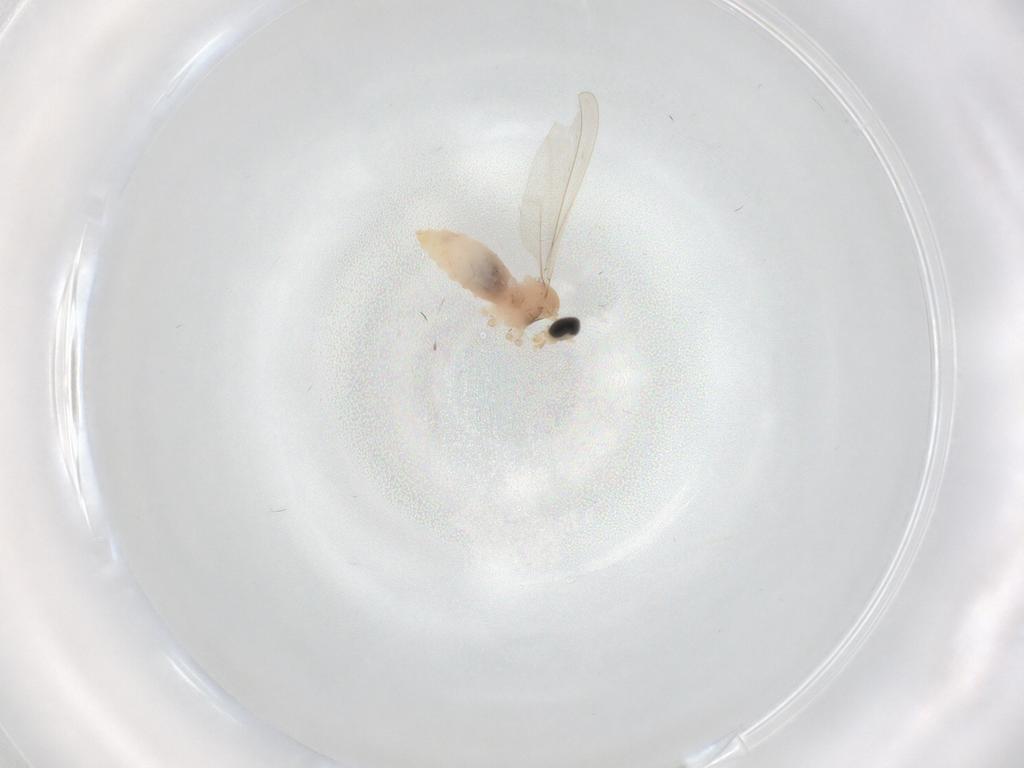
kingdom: Animalia
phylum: Arthropoda
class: Insecta
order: Diptera
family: Chironomidae
